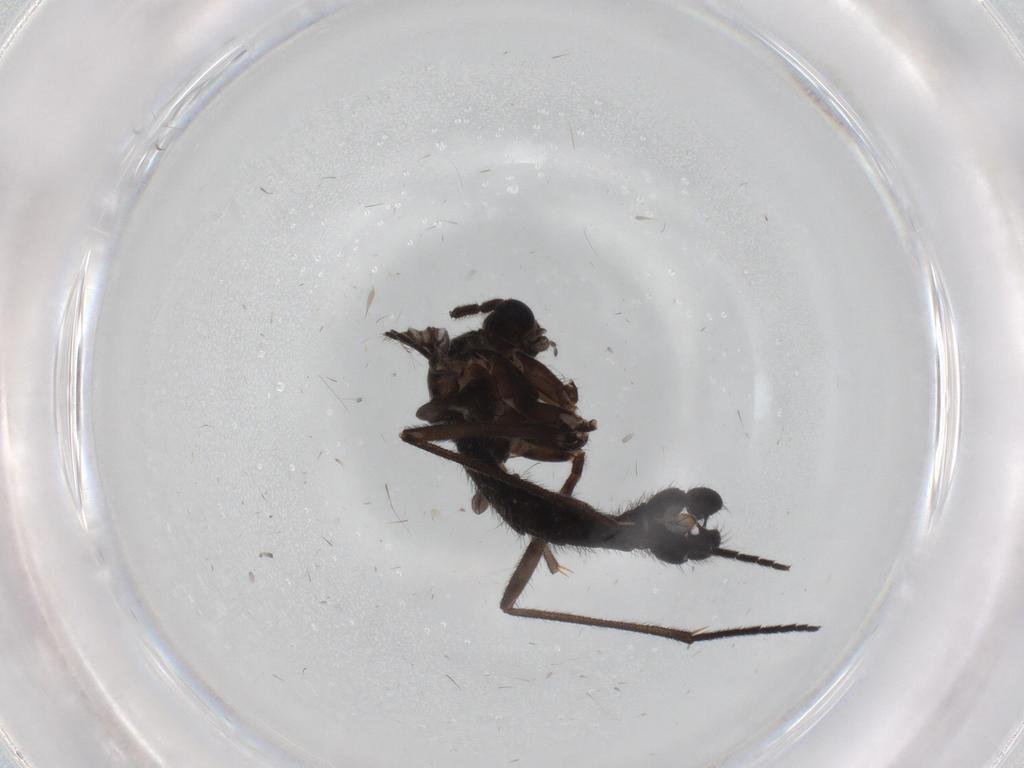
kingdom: Animalia
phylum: Arthropoda
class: Insecta
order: Diptera
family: Sciaridae
